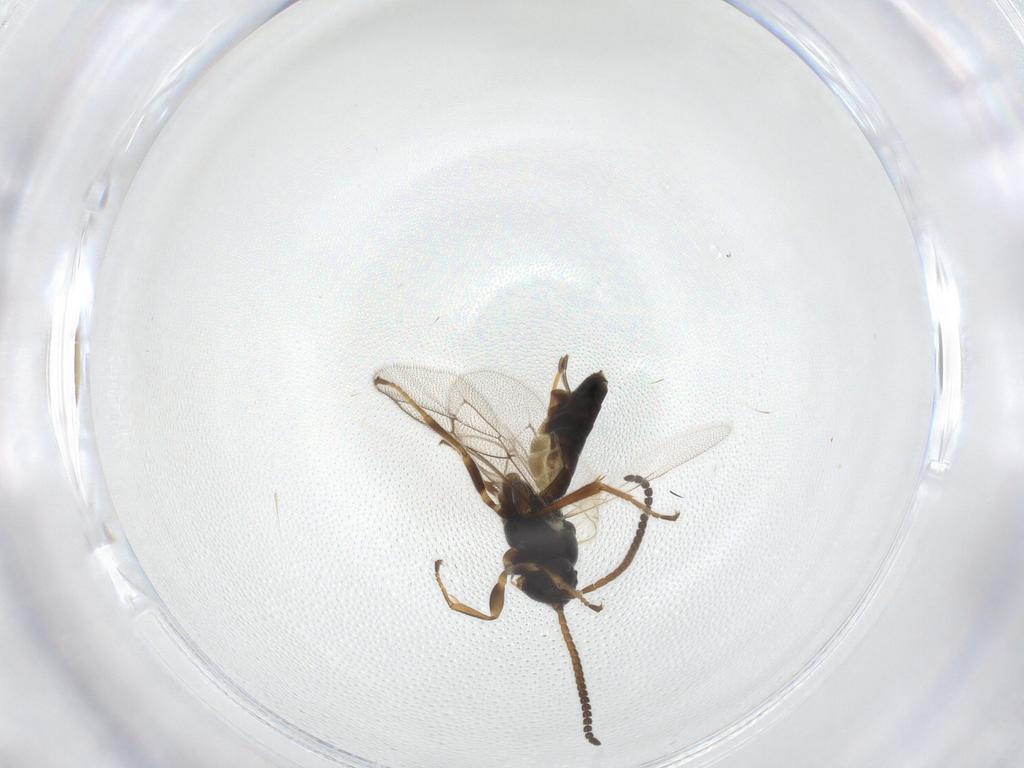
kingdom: Animalia
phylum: Arthropoda
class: Insecta
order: Hymenoptera
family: Ichneumonidae
